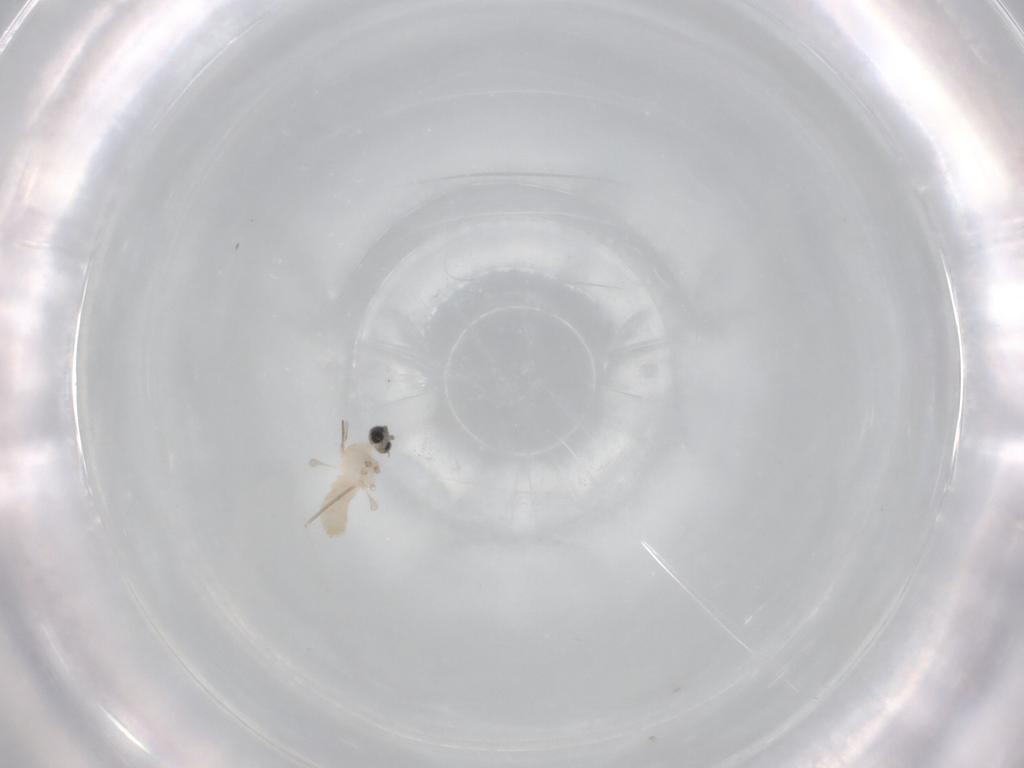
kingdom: Animalia
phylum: Arthropoda
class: Insecta
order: Diptera
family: Cecidomyiidae
